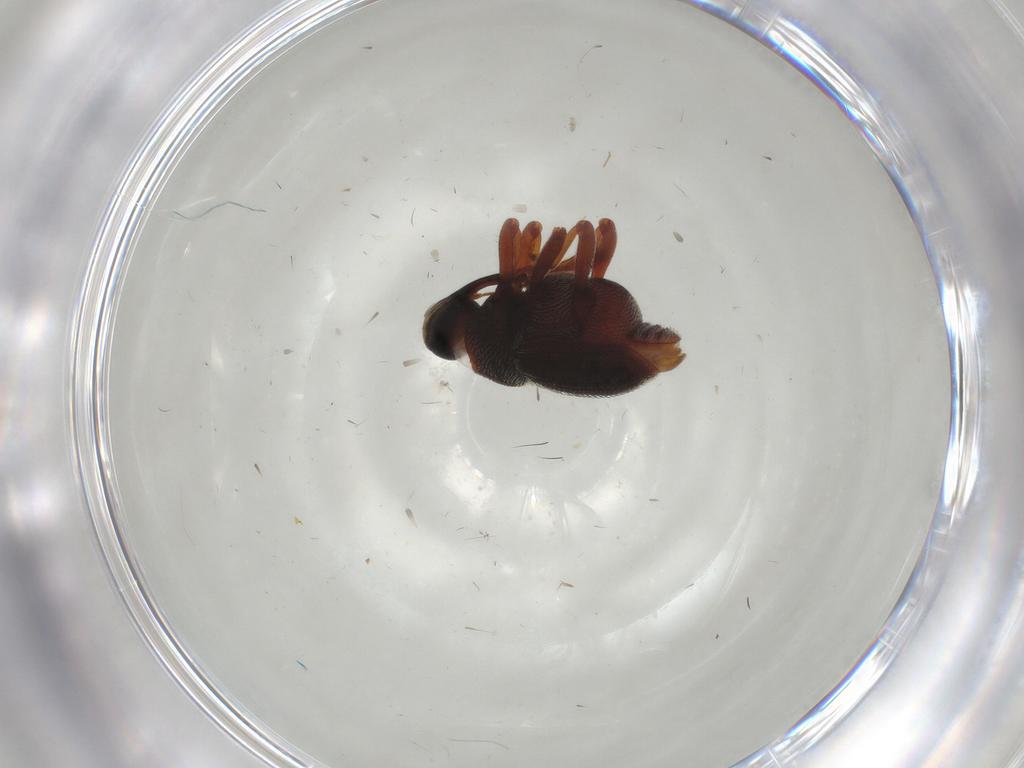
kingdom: Animalia
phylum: Arthropoda
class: Insecta
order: Coleoptera
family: Curculionidae
